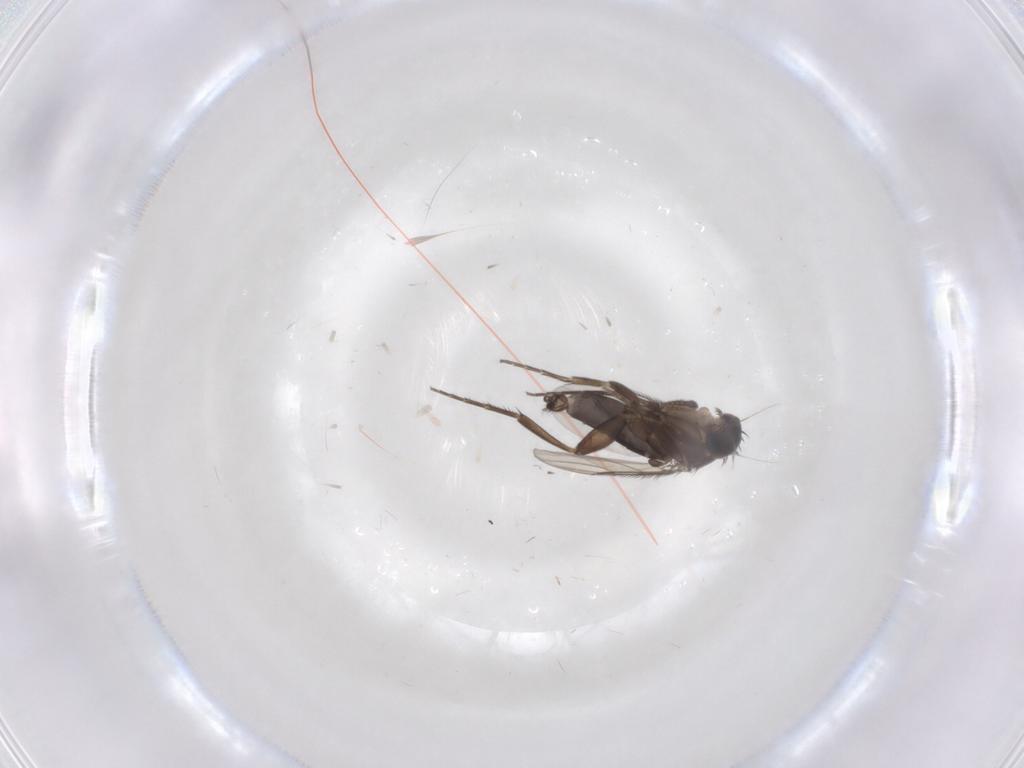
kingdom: Animalia
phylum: Arthropoda
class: Insecta
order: Diptera
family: Phoridae
